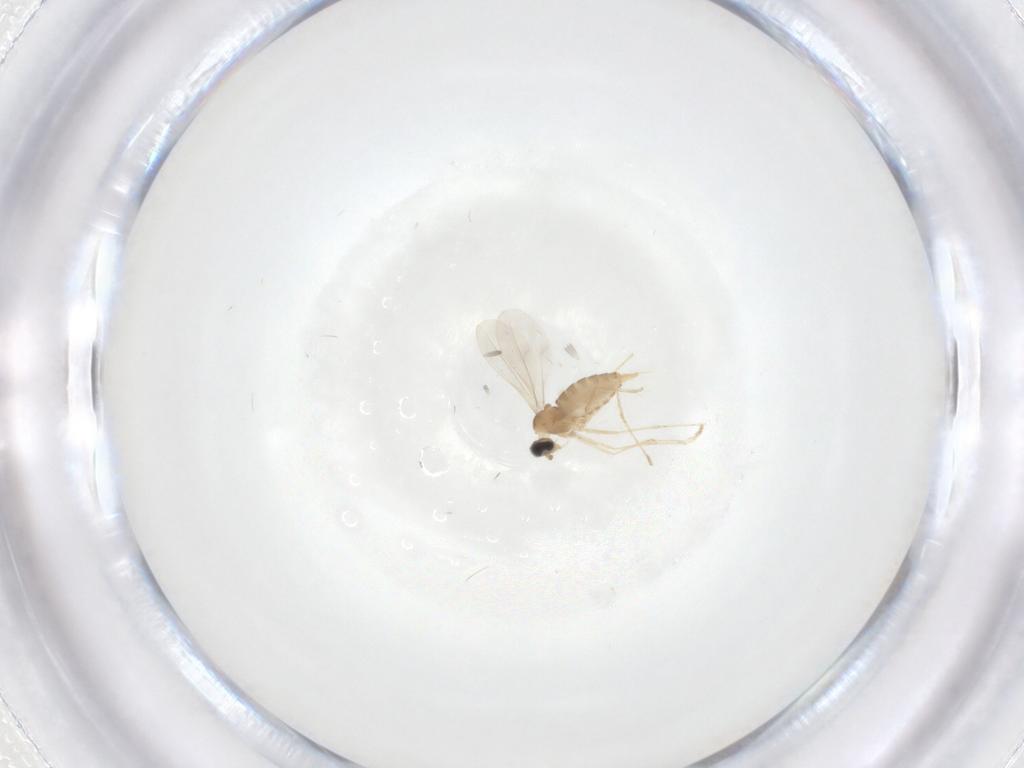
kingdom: Animalia
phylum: Arthropoda
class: Insecta
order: Diptera
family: Cecidomyiidae
